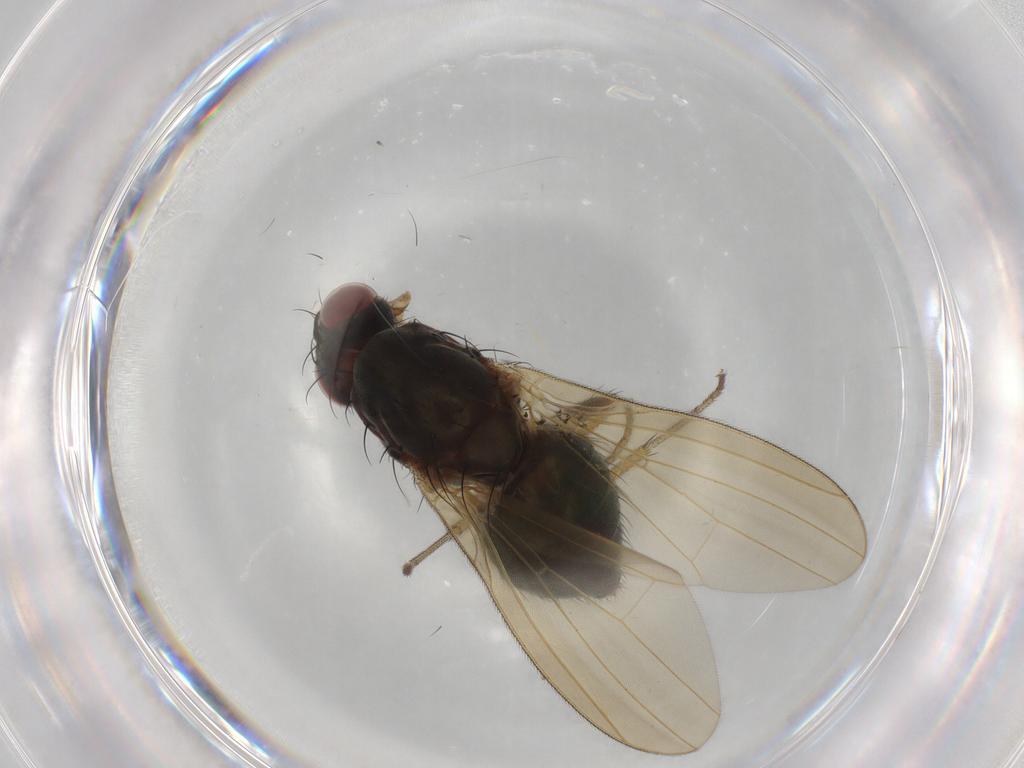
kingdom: Animalia
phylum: Arthropoda
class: Insecta
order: Diptera
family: Lauxaniidae
